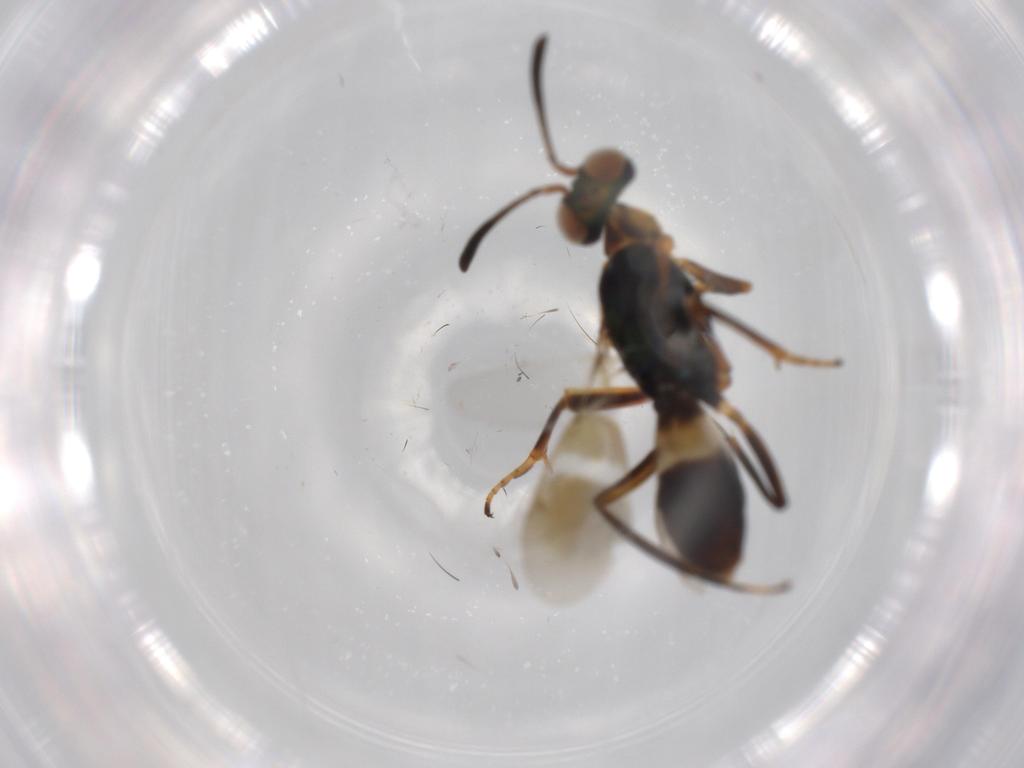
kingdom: Animalia
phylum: Arthropoda
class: Insecta
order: Hymenoptera
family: Eupelmidae
